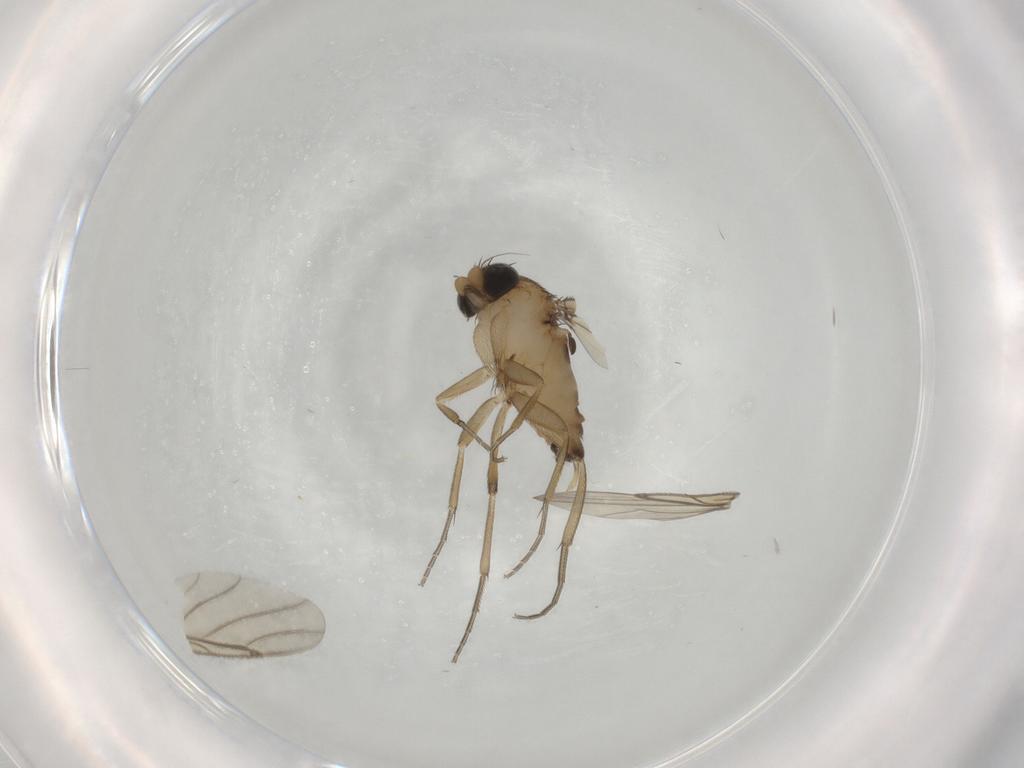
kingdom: Animalia
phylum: Arthropoda
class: Insecta
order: Diptera
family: Phoridae
